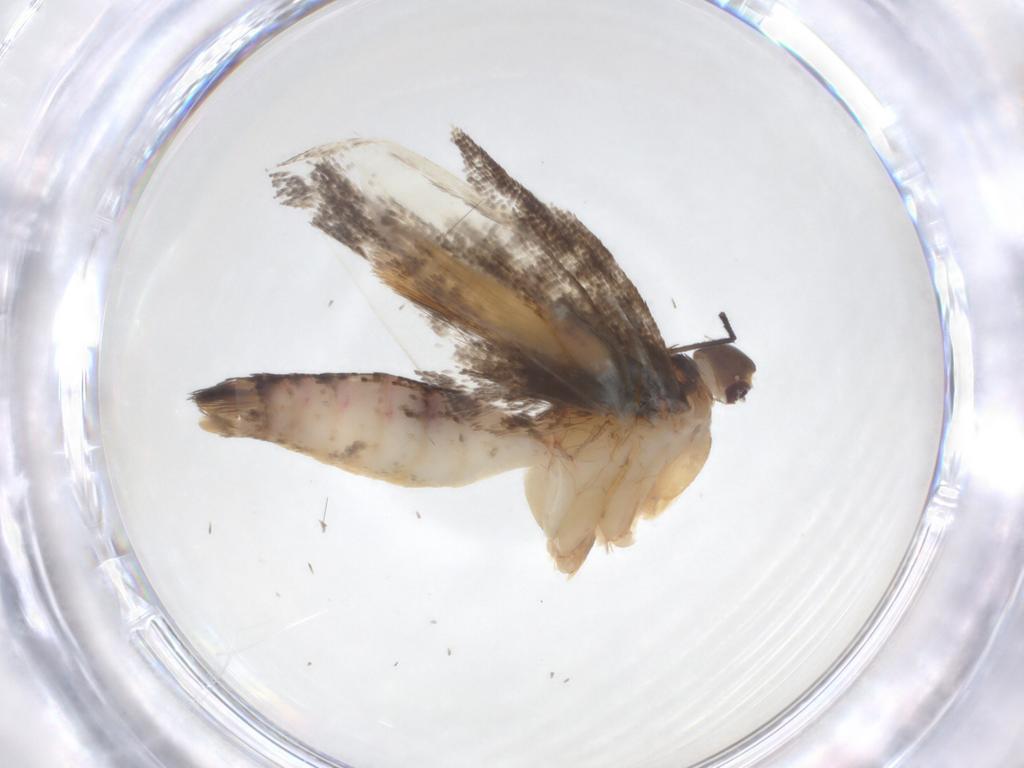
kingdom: Animalia
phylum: Arthropoda
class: Insecta
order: Lepidoptera
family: Gelechiidae
